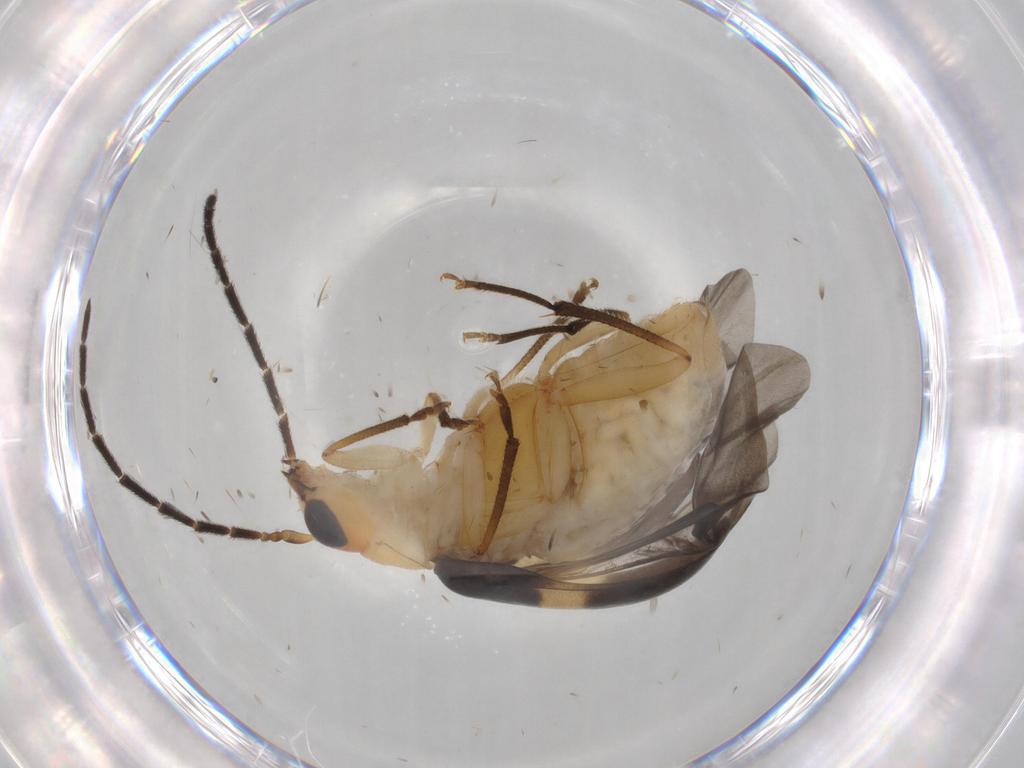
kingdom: Animalia
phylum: Arthropoda
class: Insecta
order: Coleoptera
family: Chrysomelidae
